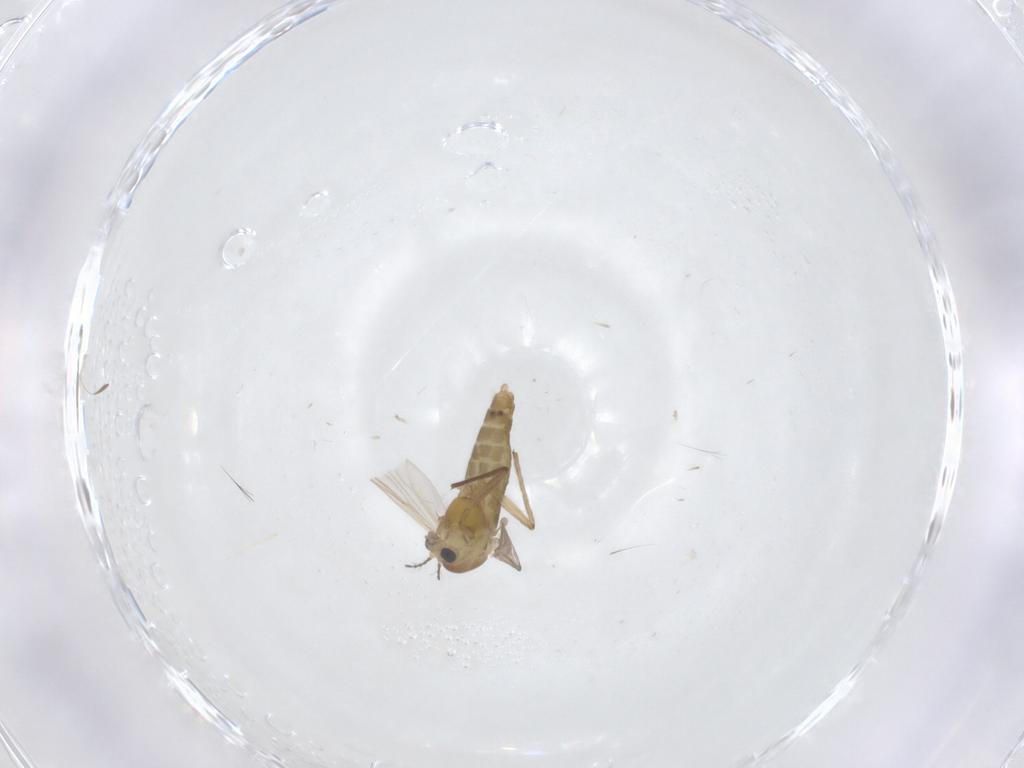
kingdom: Animalia
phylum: Arthropoda
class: Insecta
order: Diptera
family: Chironomidae
